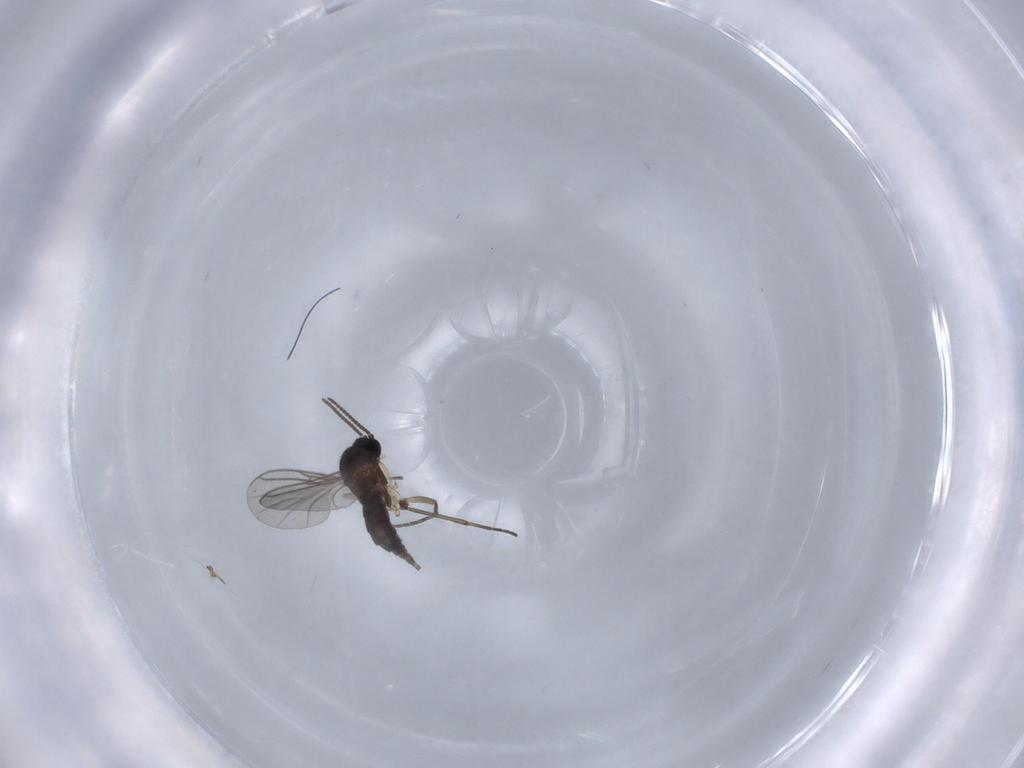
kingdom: Animalia
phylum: Arthropoda
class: Insecta
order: Diptera
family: Sciaridae
